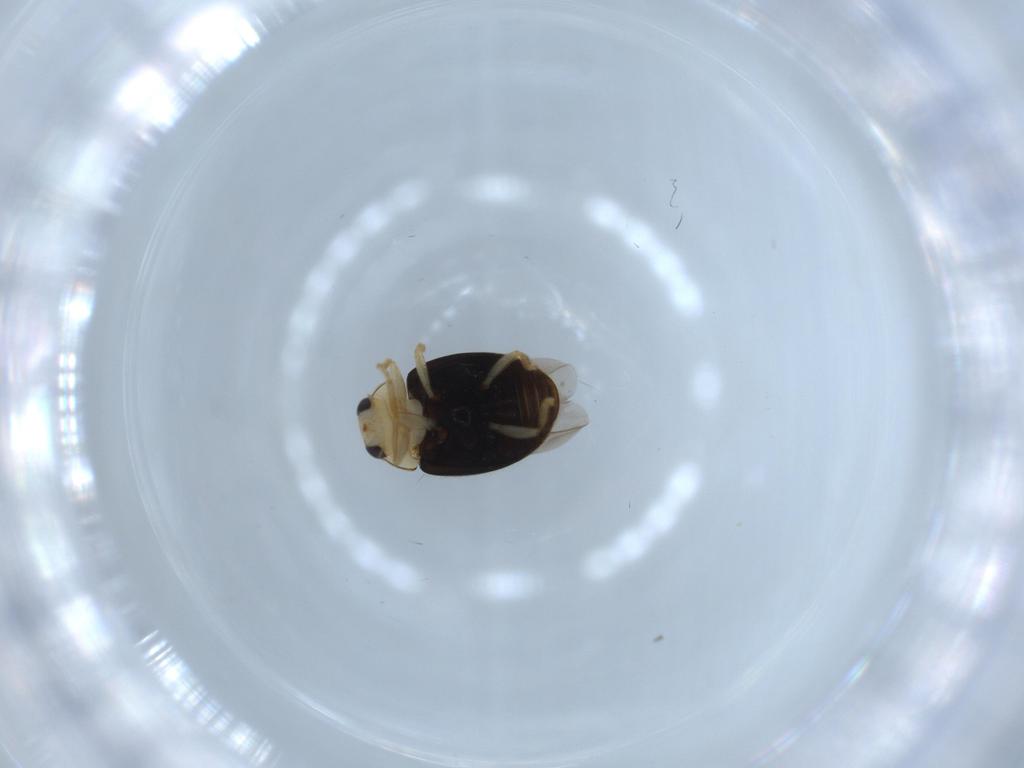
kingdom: Animalia
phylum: Arthropoda
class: Insecta
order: Coleoptera
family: Coccinellidae
